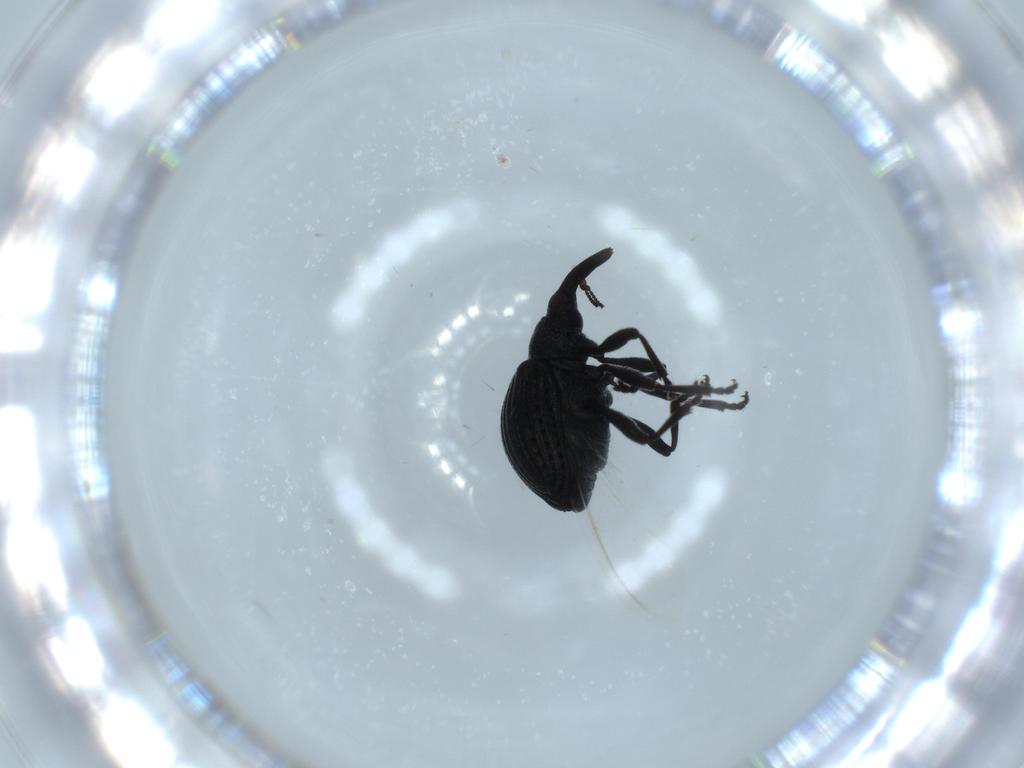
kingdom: Animalia
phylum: Arthropoda
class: Insecta
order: Coleoptera
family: Brentidae
